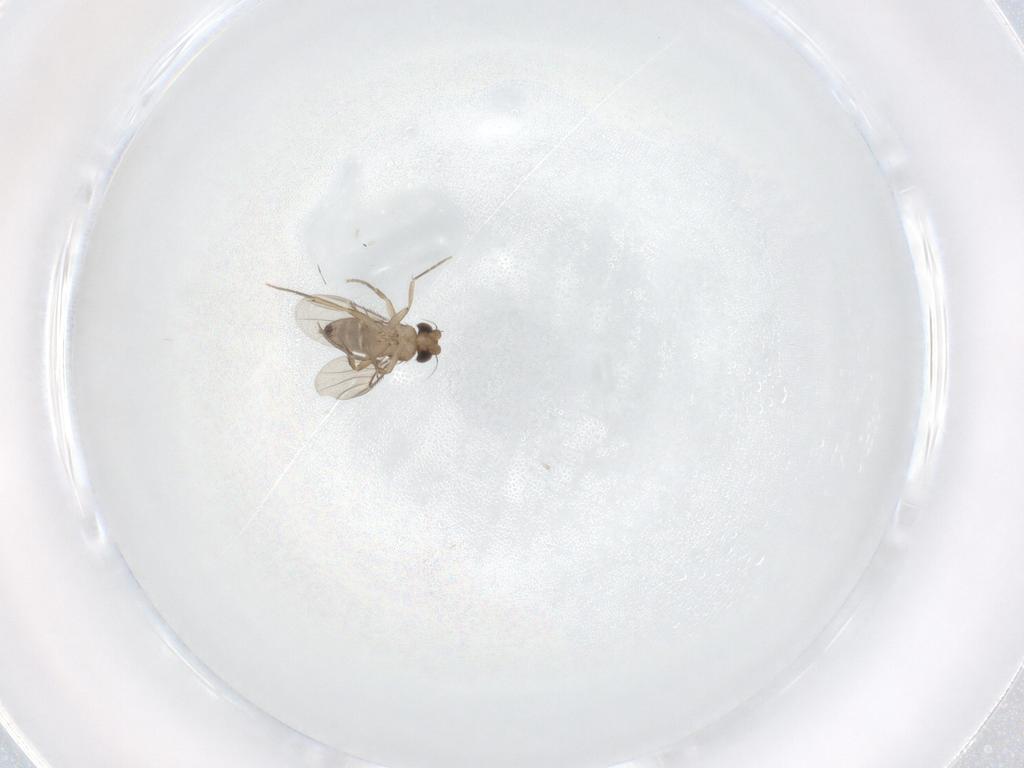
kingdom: Animalia
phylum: Arthropoda
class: Insecta
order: Diptera
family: Phoridae
